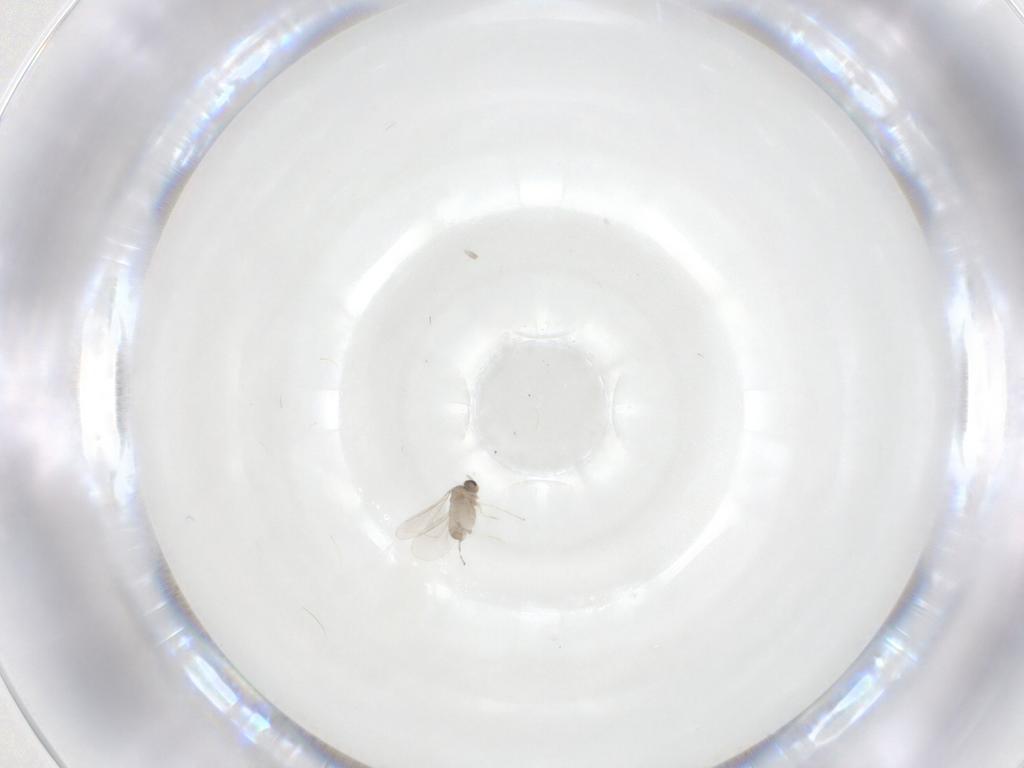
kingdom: Animalia
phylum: Arthropoda
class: Insecta
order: Diptera
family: Cecidomyiidae
